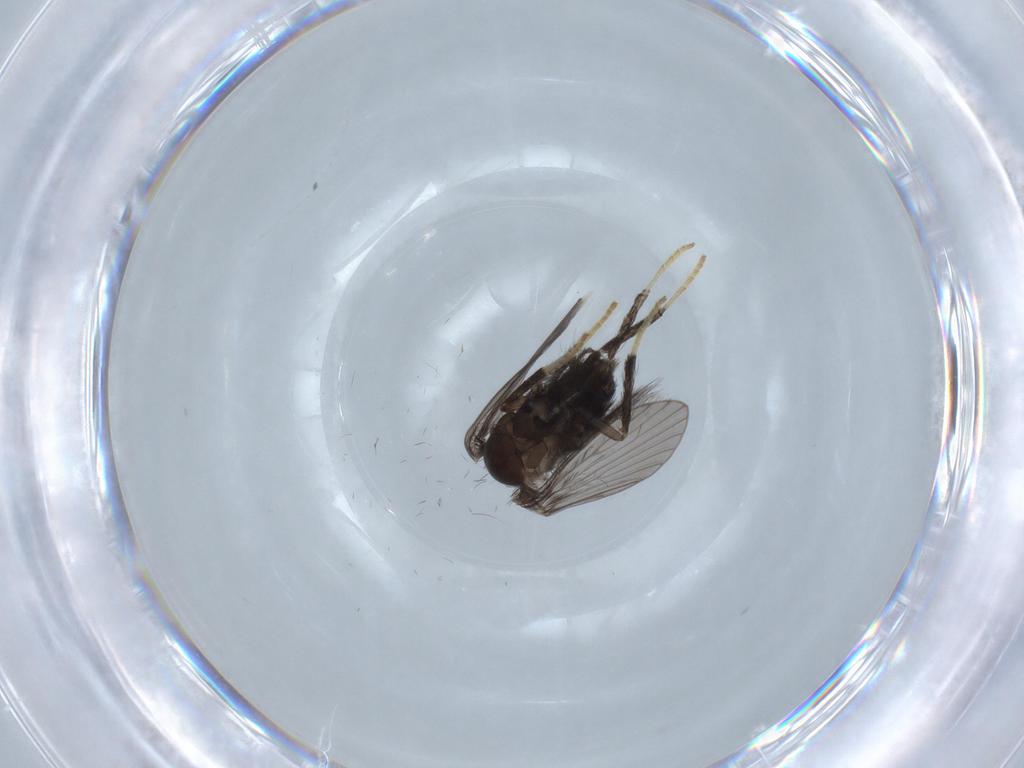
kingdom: Animalia
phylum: Arthropoda
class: Insecta
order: Diptera
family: Psychodidae
